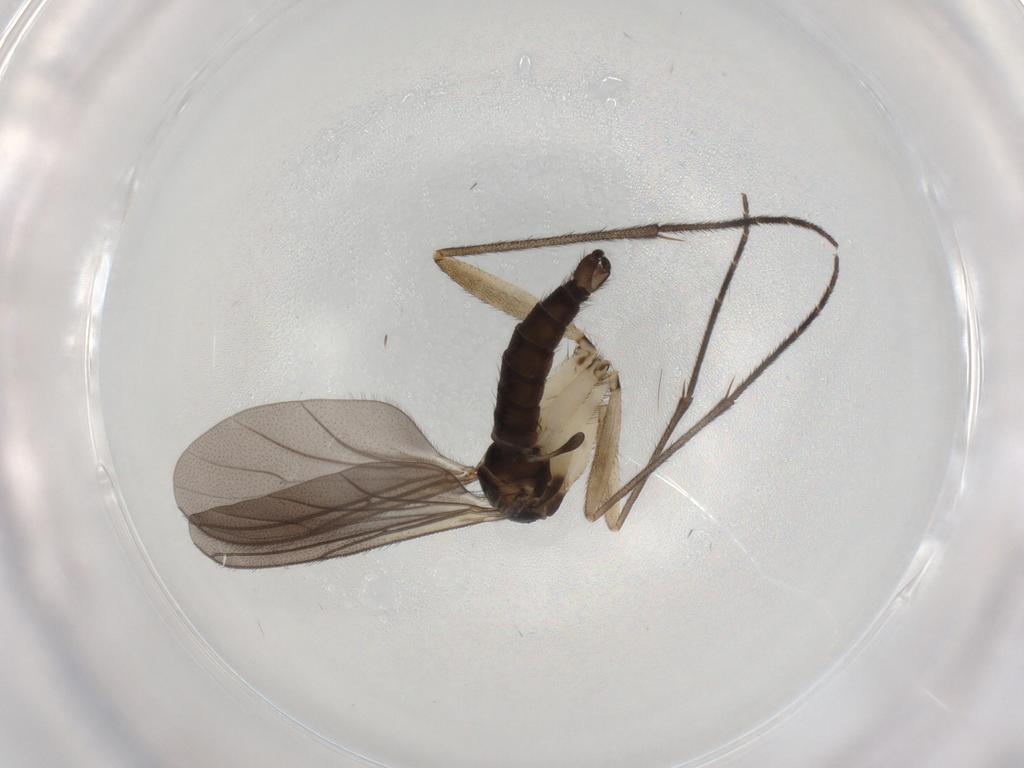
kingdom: Animalia
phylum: Arthropoda
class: Insecta
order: Diptera
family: Sciaridae
